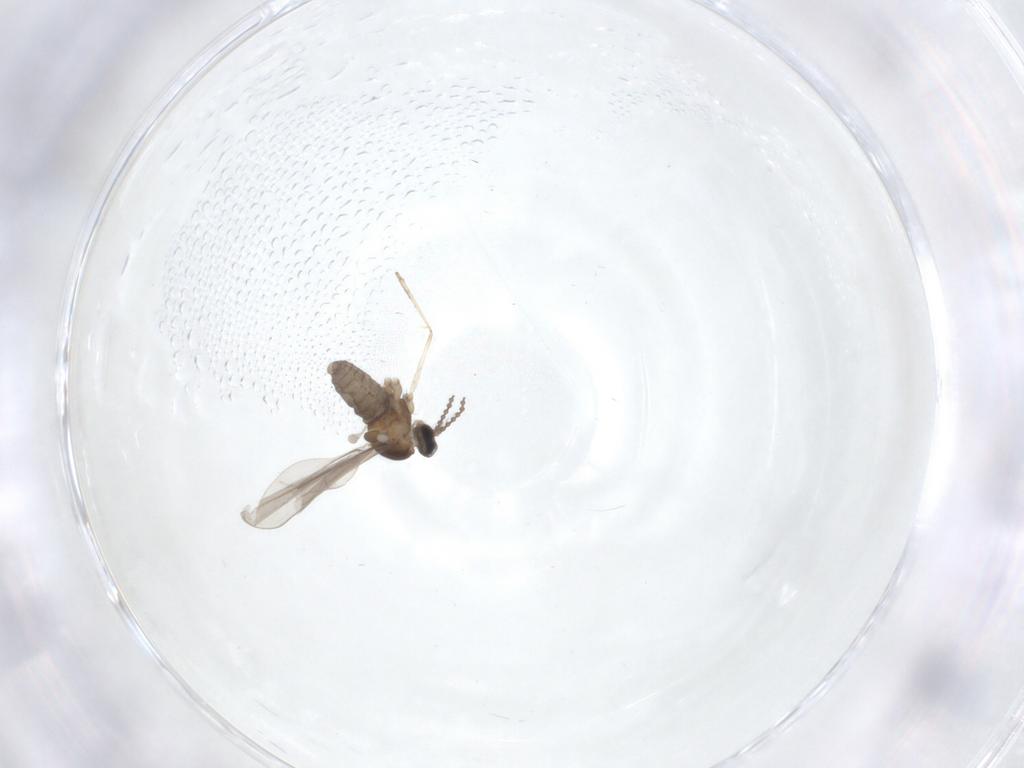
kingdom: Animalia
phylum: Arthropoda
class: Insecta
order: Diptera
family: Cecidomyiidae
